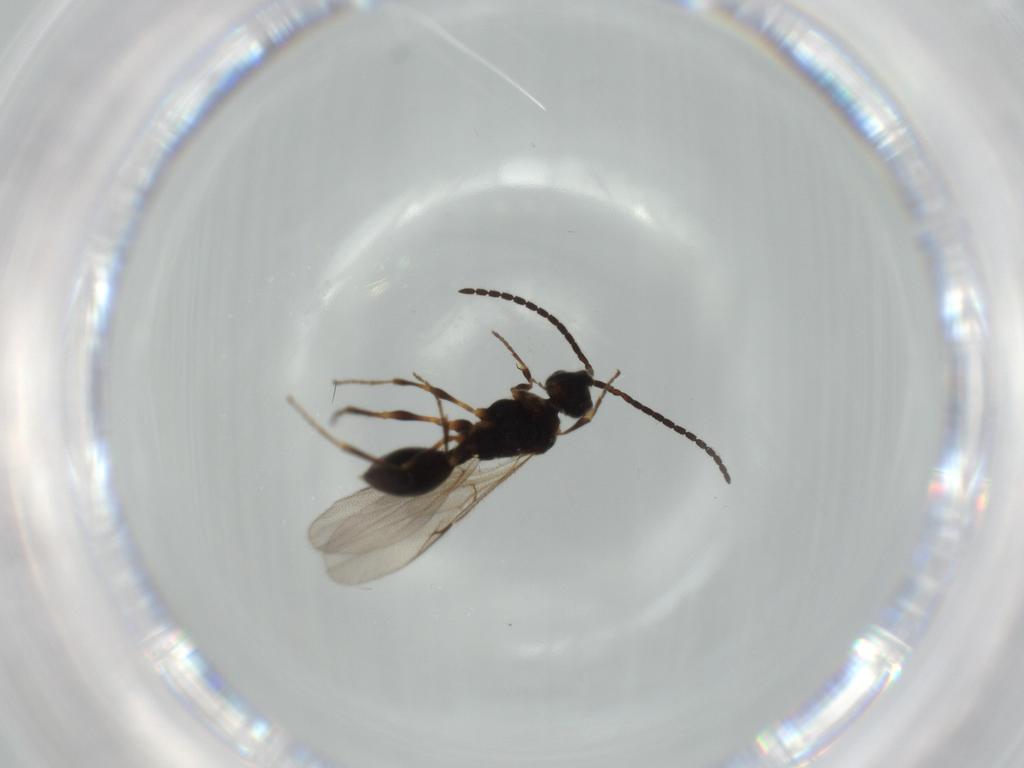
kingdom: Animalia
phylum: Arthropoda
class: Insecta
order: Hymenoptera
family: Diapriidae
